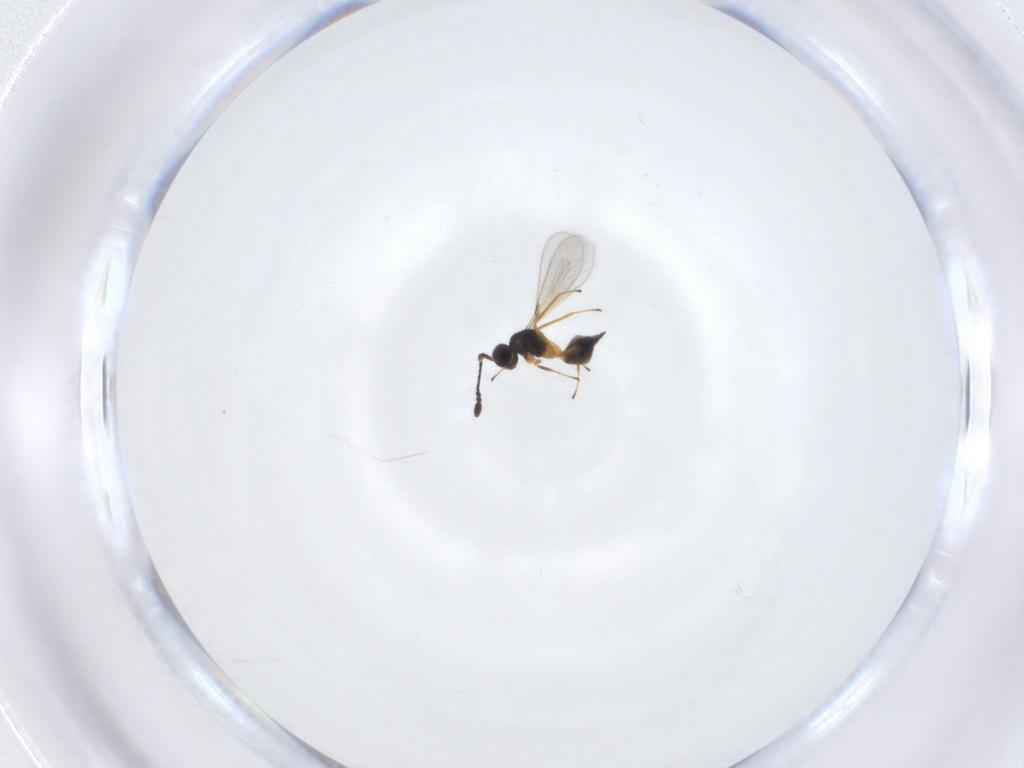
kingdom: Animalia
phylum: Arthropoda
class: Insecta
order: Hymenoptera
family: Mymaridae
